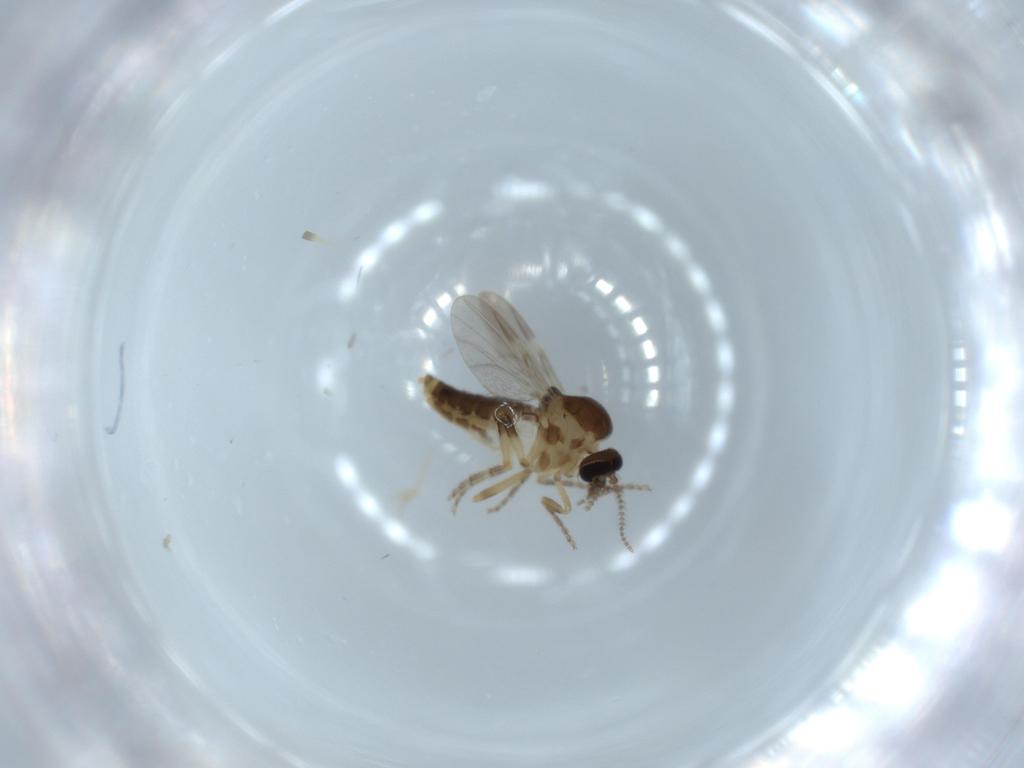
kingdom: Animalia
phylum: Arthropoda
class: Insecta
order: Diptera
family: Ceratopogonidae
